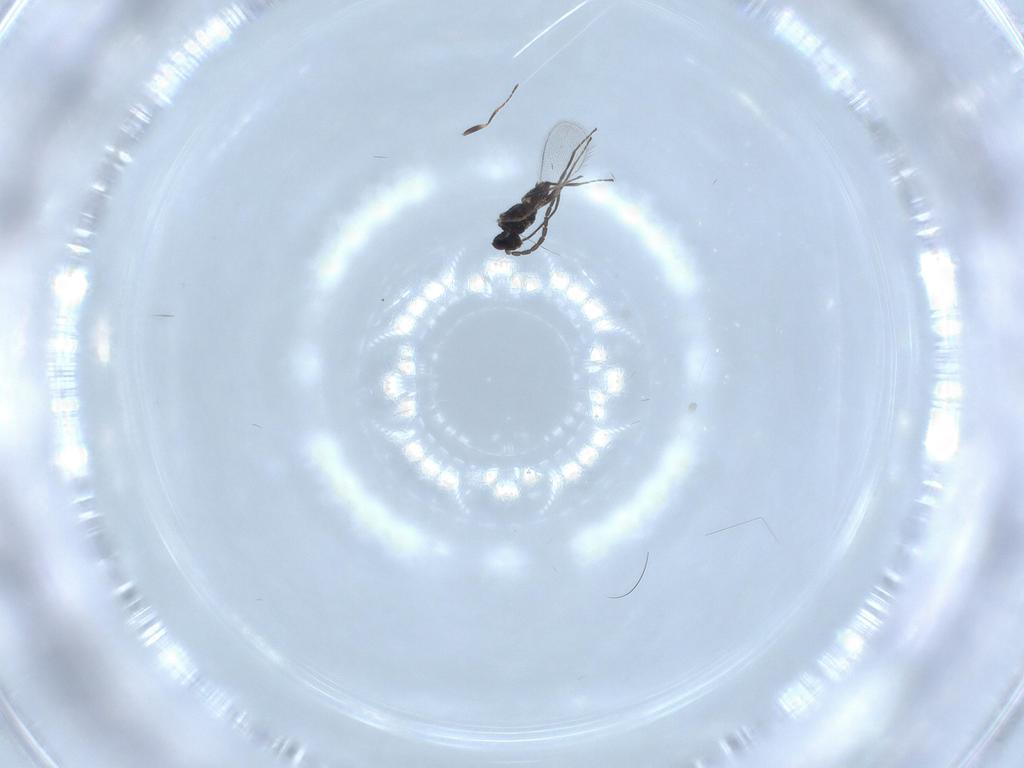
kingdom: Animalia
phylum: Arthropoda
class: Insecta
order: Hymenoptera
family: Mymaridae
